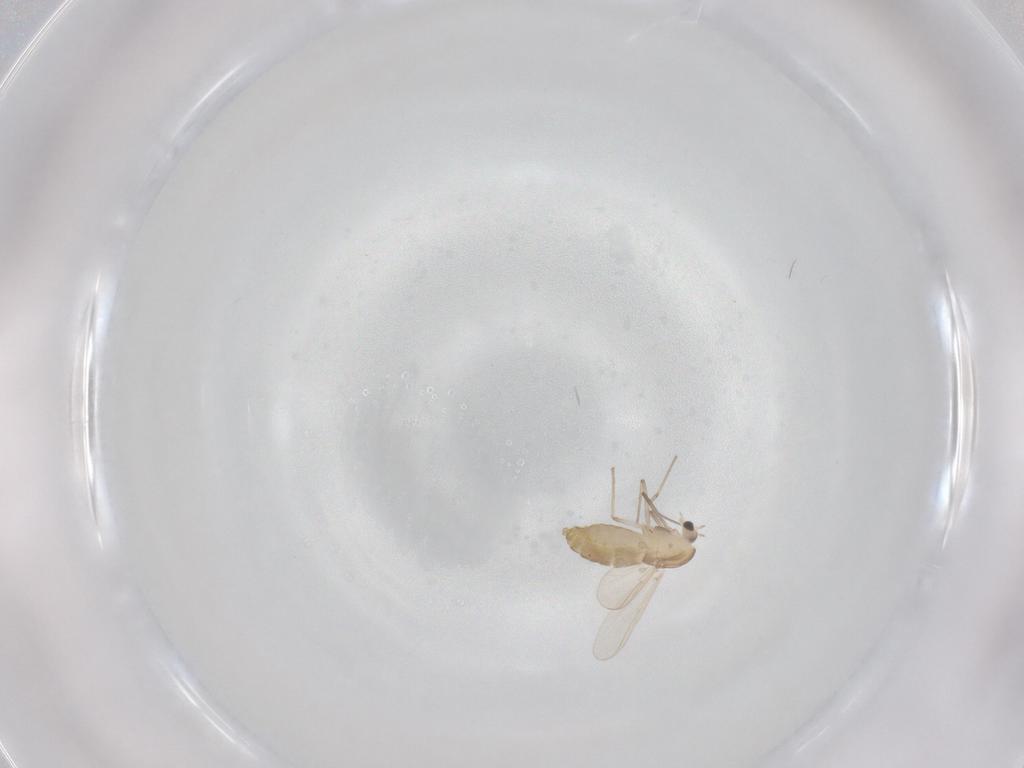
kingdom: Animalia
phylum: Arthropoda
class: Insecta
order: Diptera
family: Chironomidae
